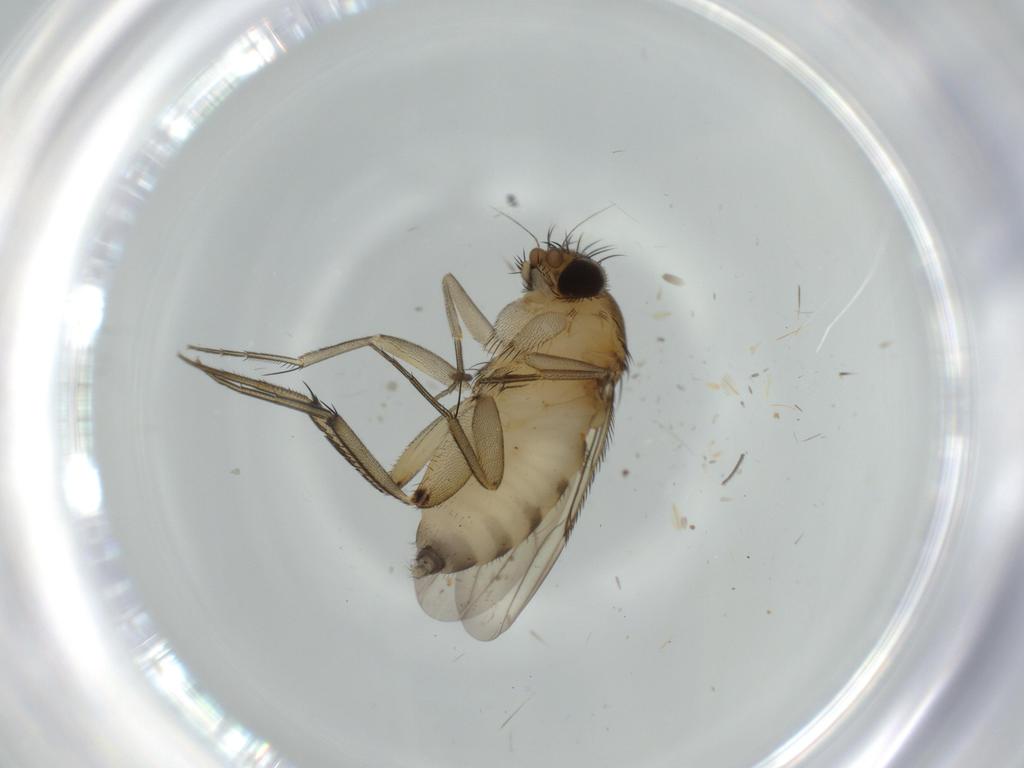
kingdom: Animalia
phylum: Arthropoda
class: Insecta
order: Diptera
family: Phoridae
